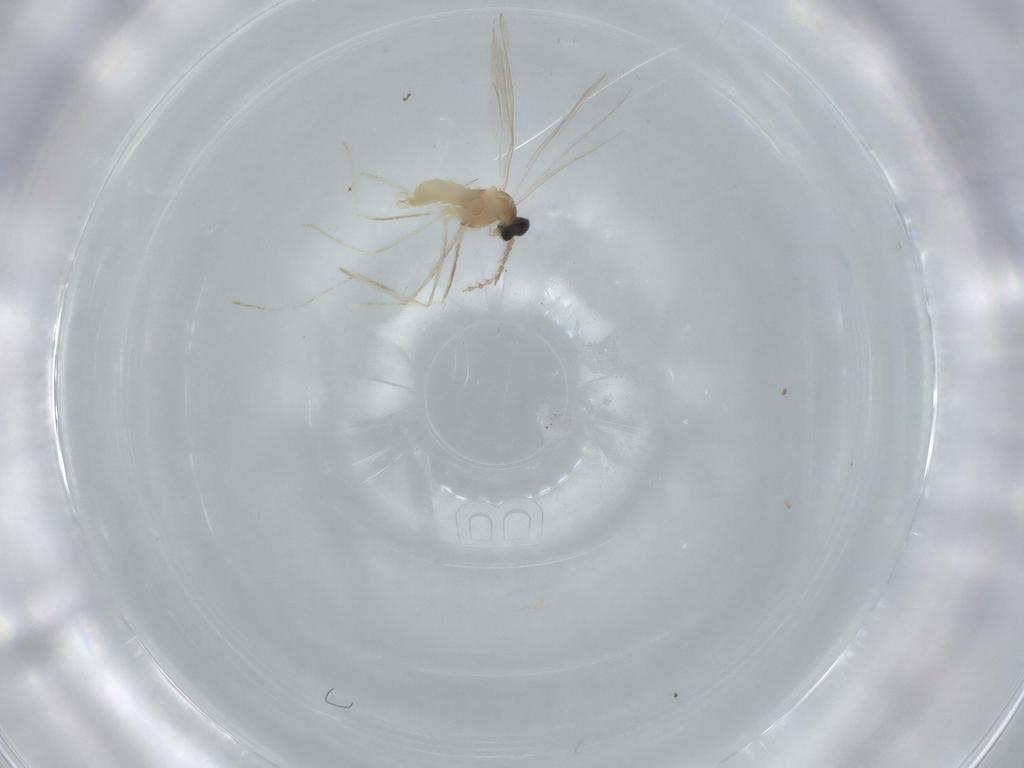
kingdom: Animalia
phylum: Arthropoda
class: Insecta
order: Diptera
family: Cecidomyiidae
